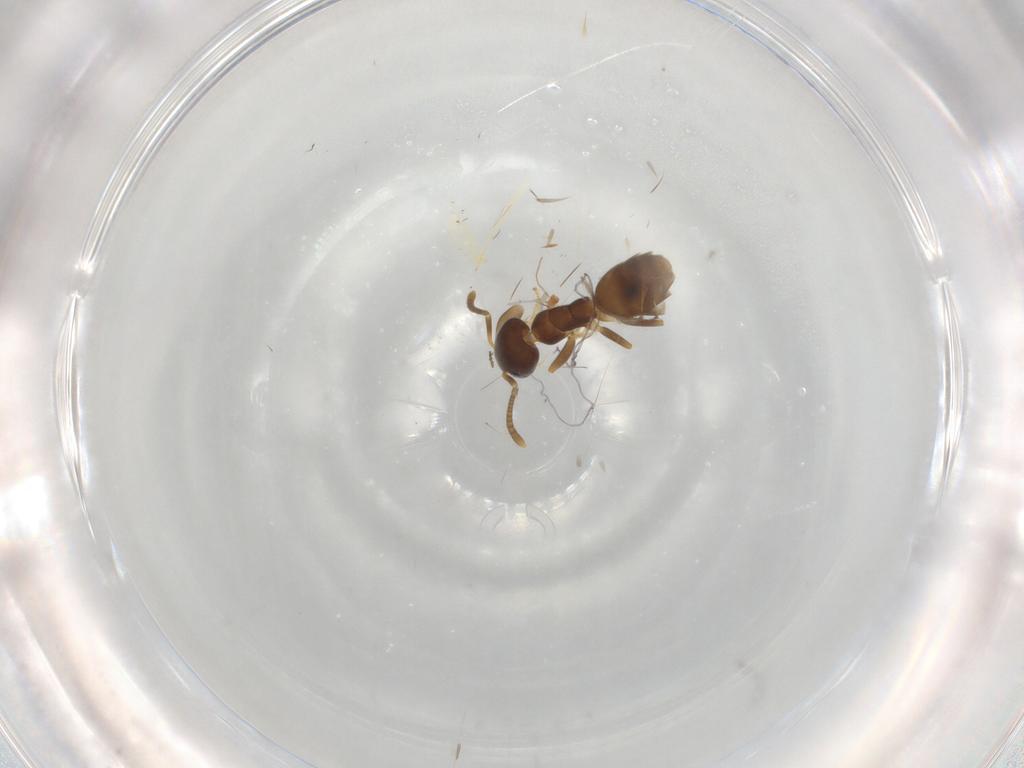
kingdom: Animalia
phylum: Arthropoda
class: Insecta
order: Hymenoptera
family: Formicidae
